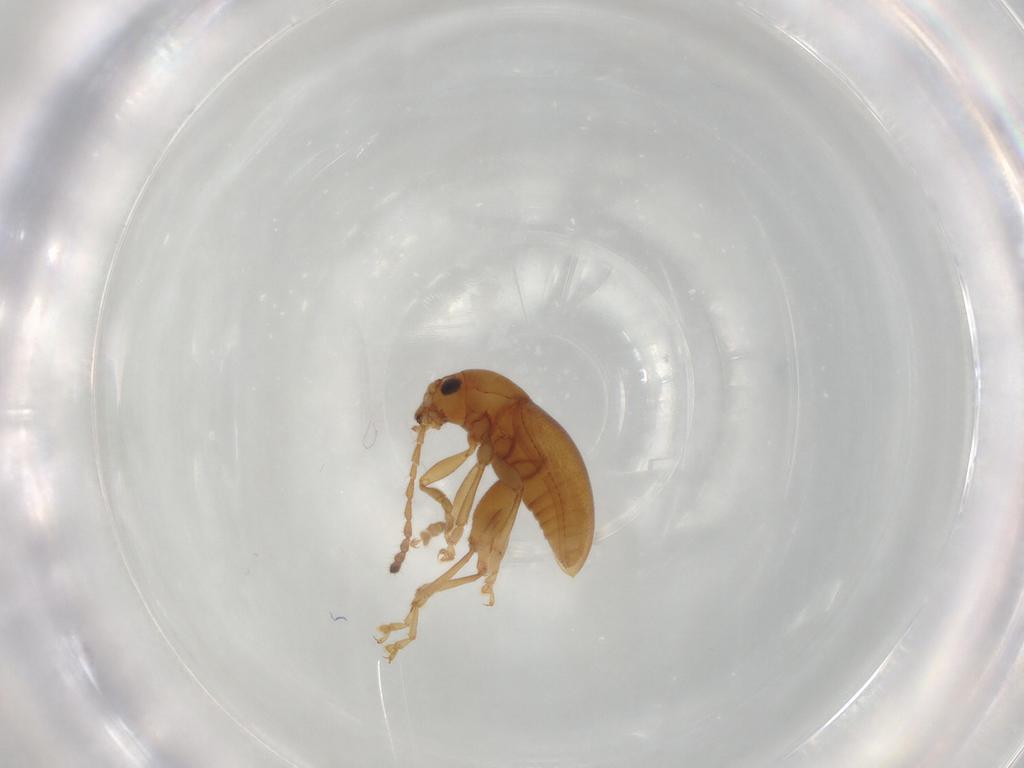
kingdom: Animalia
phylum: Arthropoda
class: Insecta
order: Coleoptera
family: Chrysomelidae
